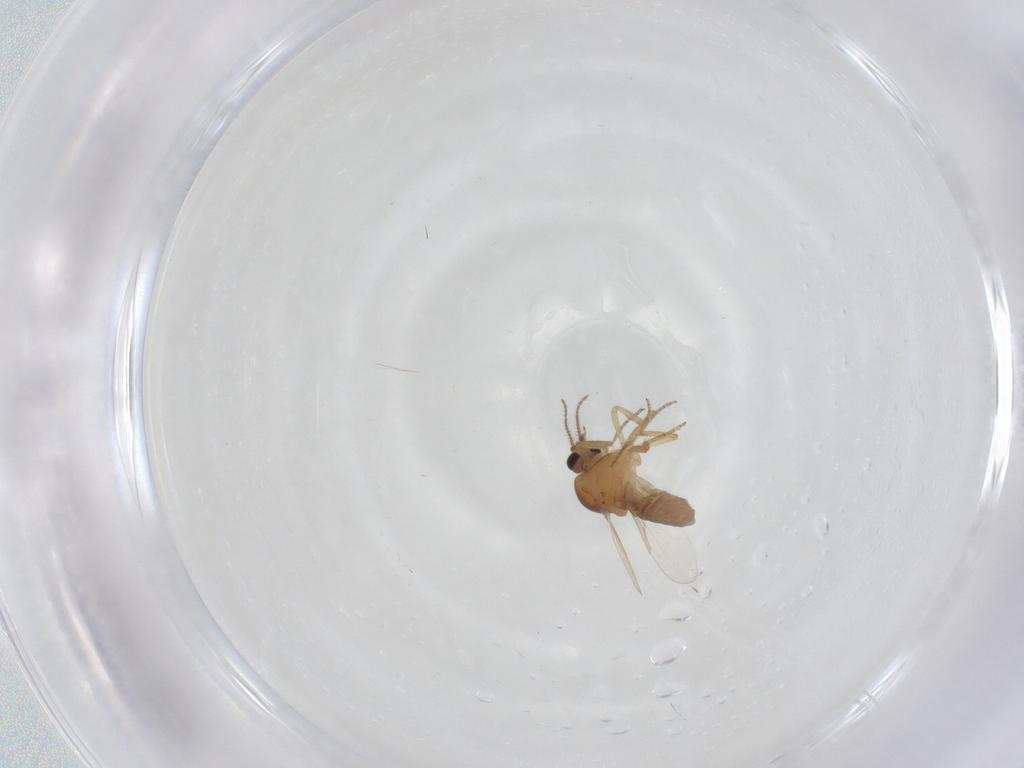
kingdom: Animalia
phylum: Arthropoda
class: Insecta
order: Diptera
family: Ceratopogonidae
